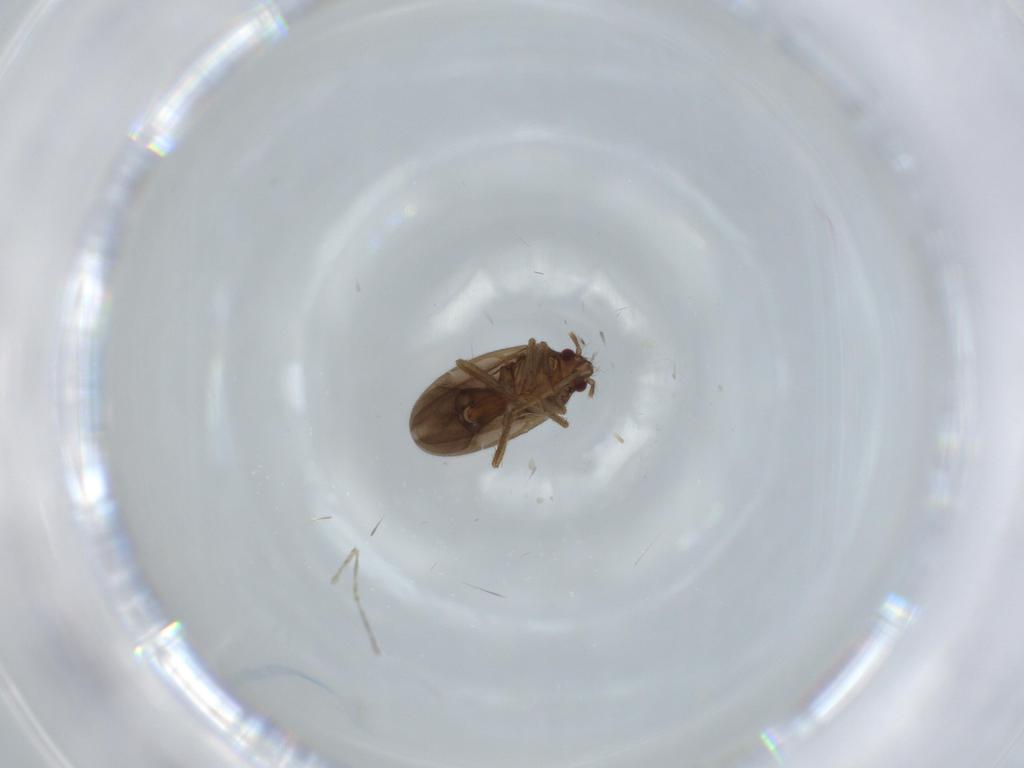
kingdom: Animalia
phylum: Arthropoda
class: Insecta
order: Hemiptera
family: Ceratocombidae
